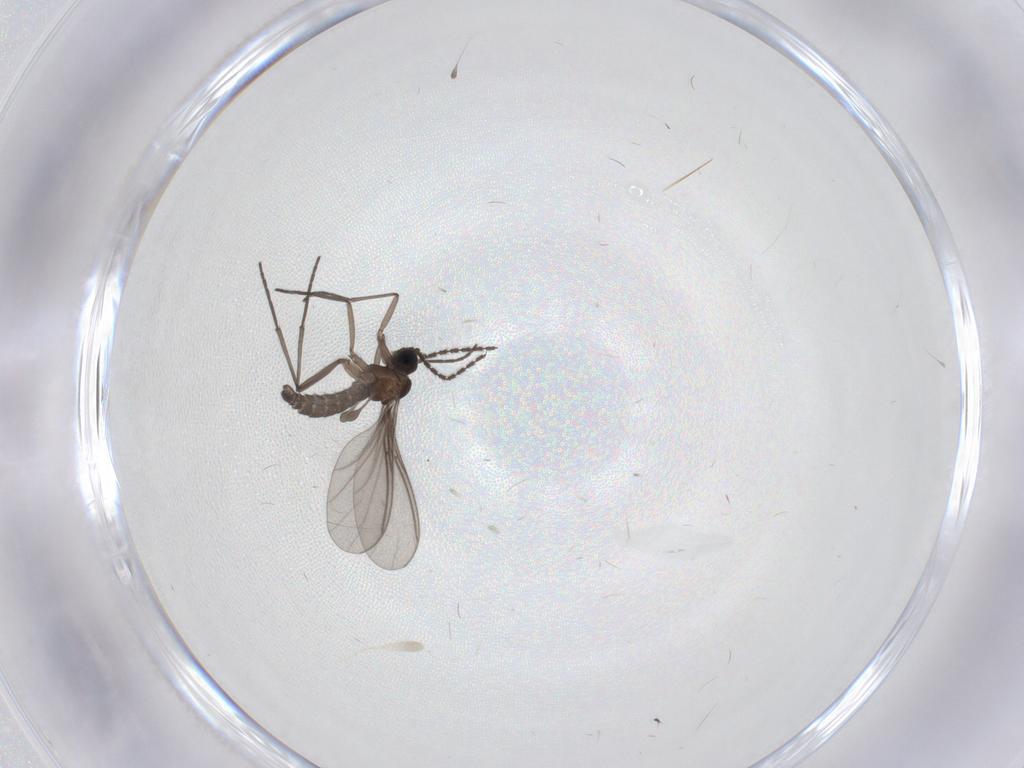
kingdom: Animalia
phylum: Arthropoda
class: Insecta
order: Diptera
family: Sciaridae
